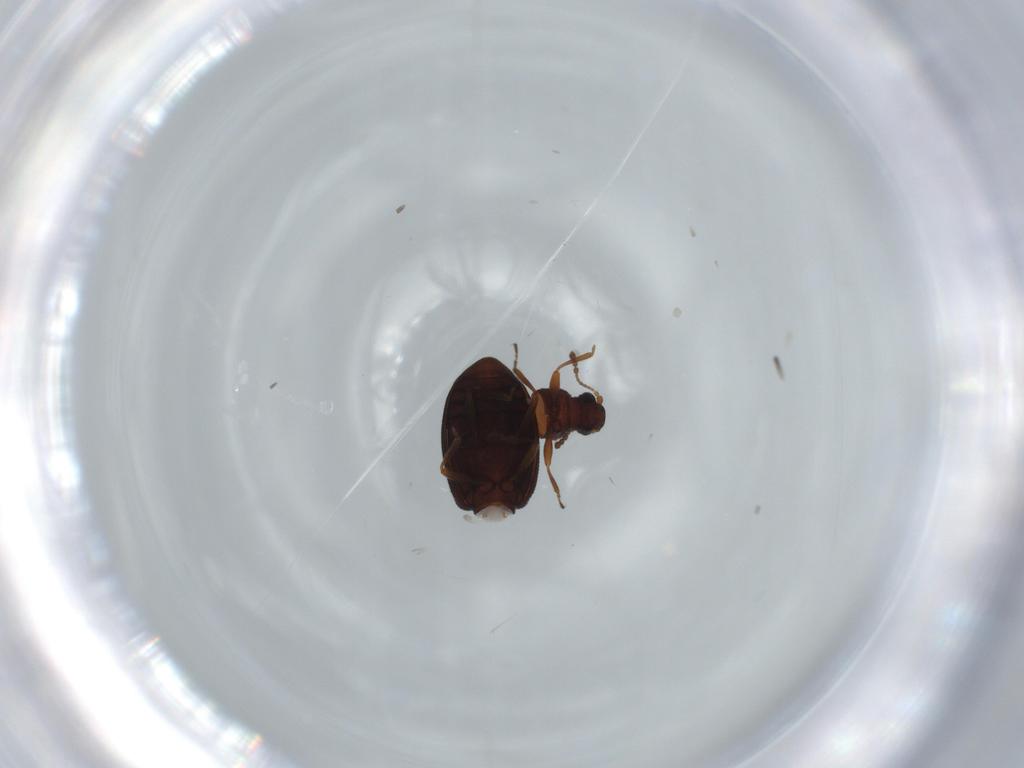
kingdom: Animalia
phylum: Arthropoda
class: Insecta
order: Coleoptera
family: Latridiidae
